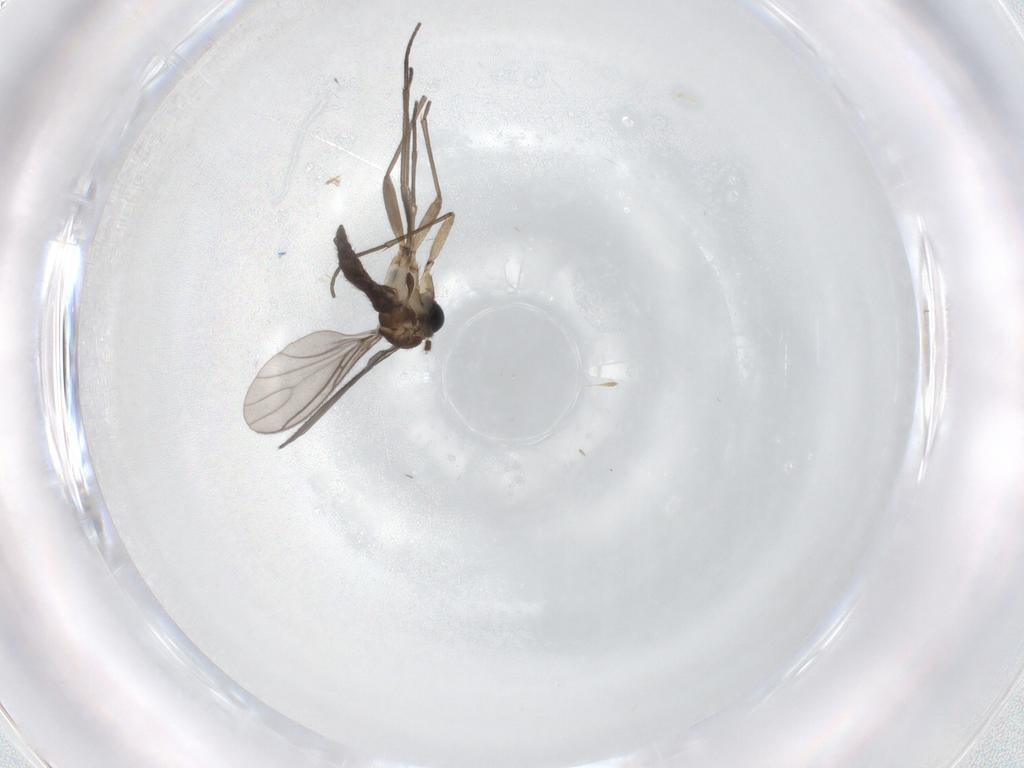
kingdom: Animalia
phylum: Arthropoda
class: Insecta
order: Diptera
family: Sciaridae
